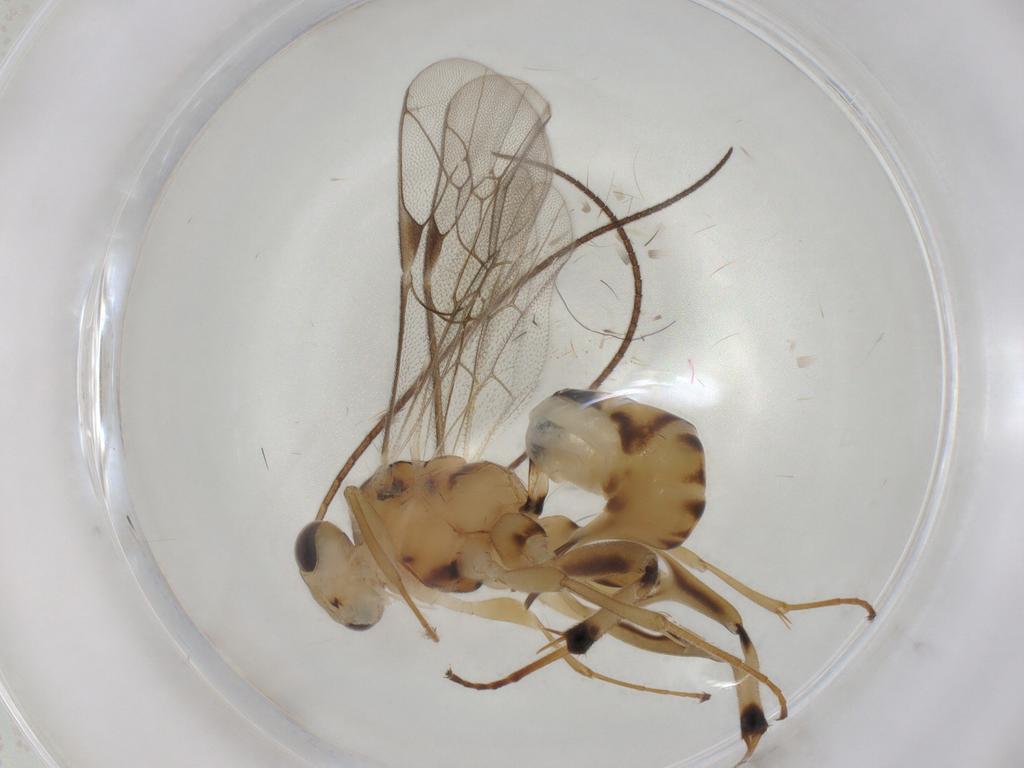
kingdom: Animalia
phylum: Arthropoda
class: Insecta
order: Hymenoptera
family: Ichneumonidae
